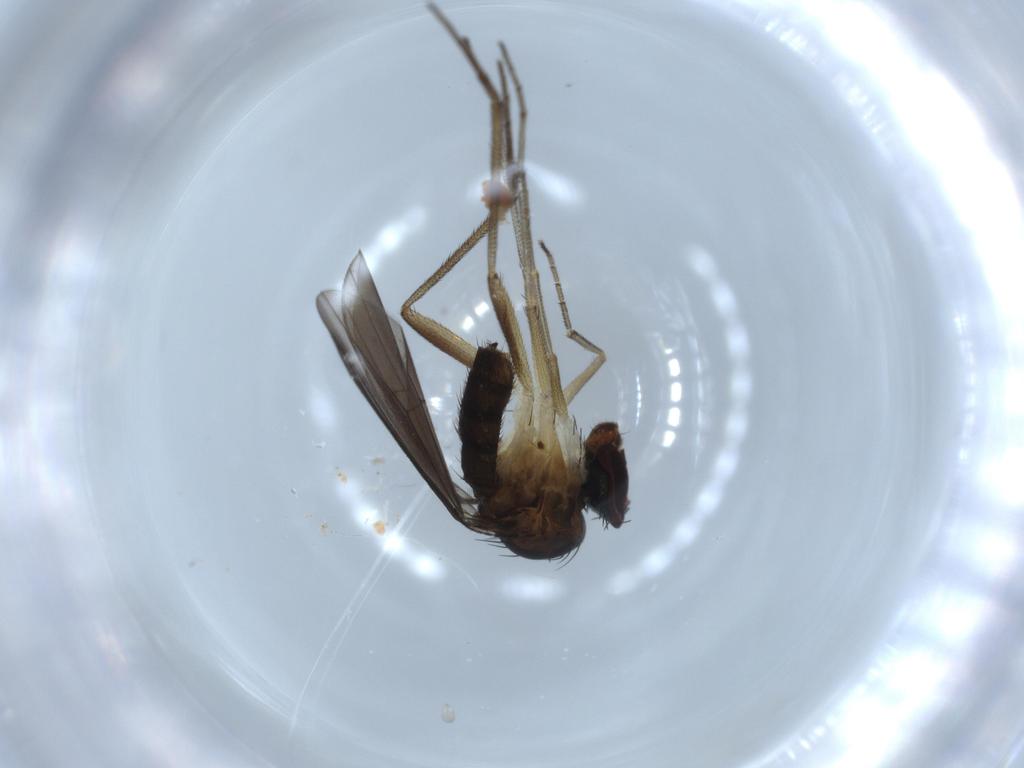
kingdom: Animalia
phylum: Arthropoda
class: Insecta
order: Diptera
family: Dolichopodidae
